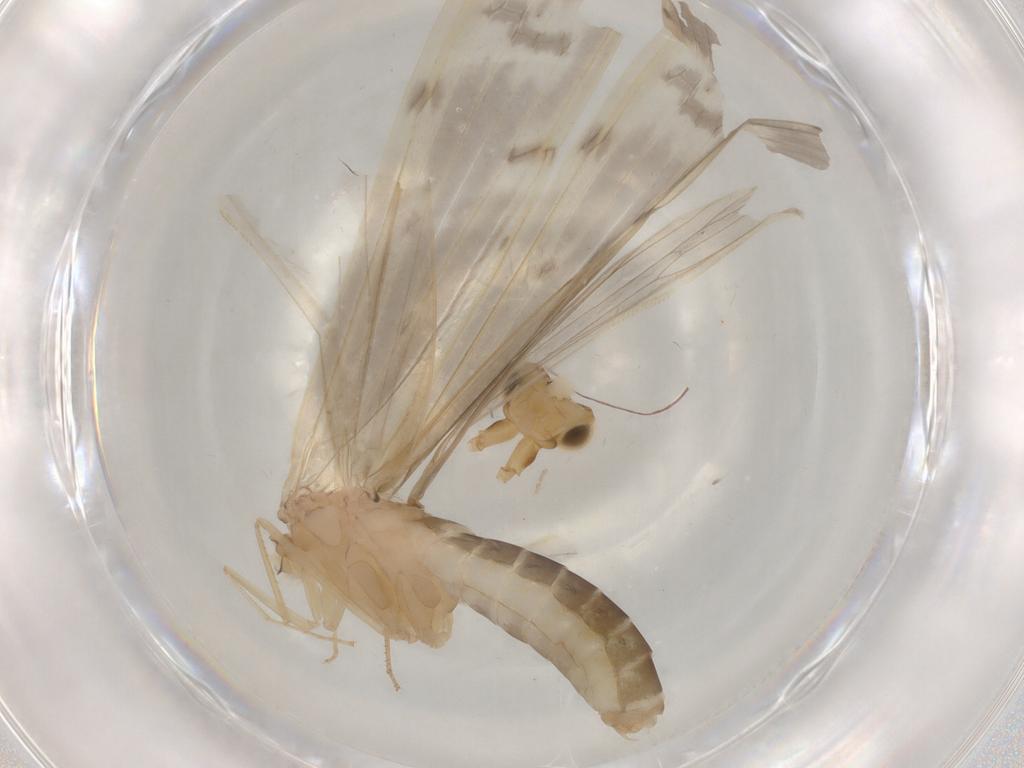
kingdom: Animalia
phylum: Arthropoda
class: Insecta
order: Trichoptera
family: Leptoceridae
